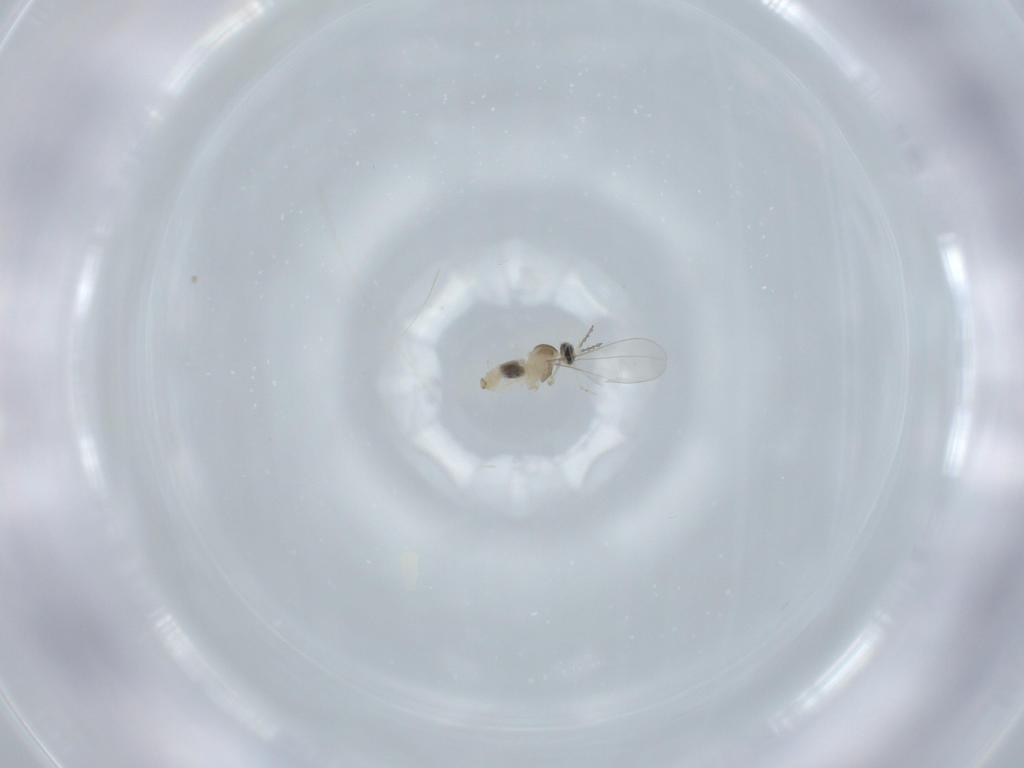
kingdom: Animalia
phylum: Arthropoda
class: Insecta
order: Diptera
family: Cecidomyiidae
